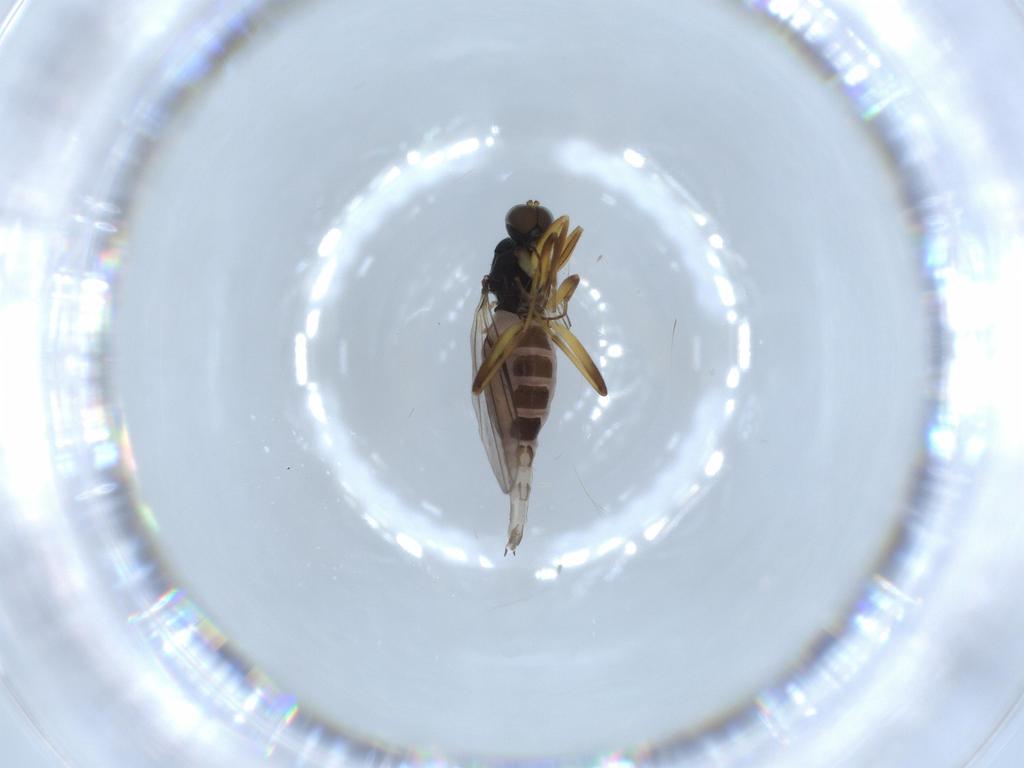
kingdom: Animalia
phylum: Arthropoda
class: Insecta
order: Diptera
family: Hybotidae
